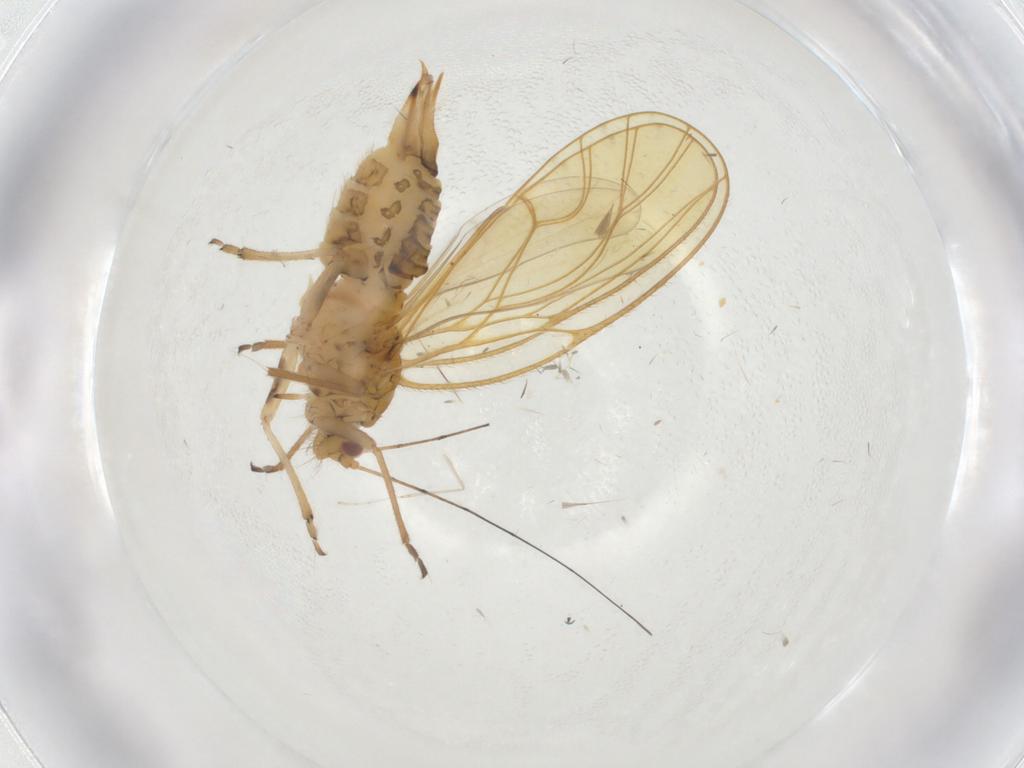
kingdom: Animalia
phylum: Arthropoda
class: Insecta
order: Hemiptera
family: Psyllidae
